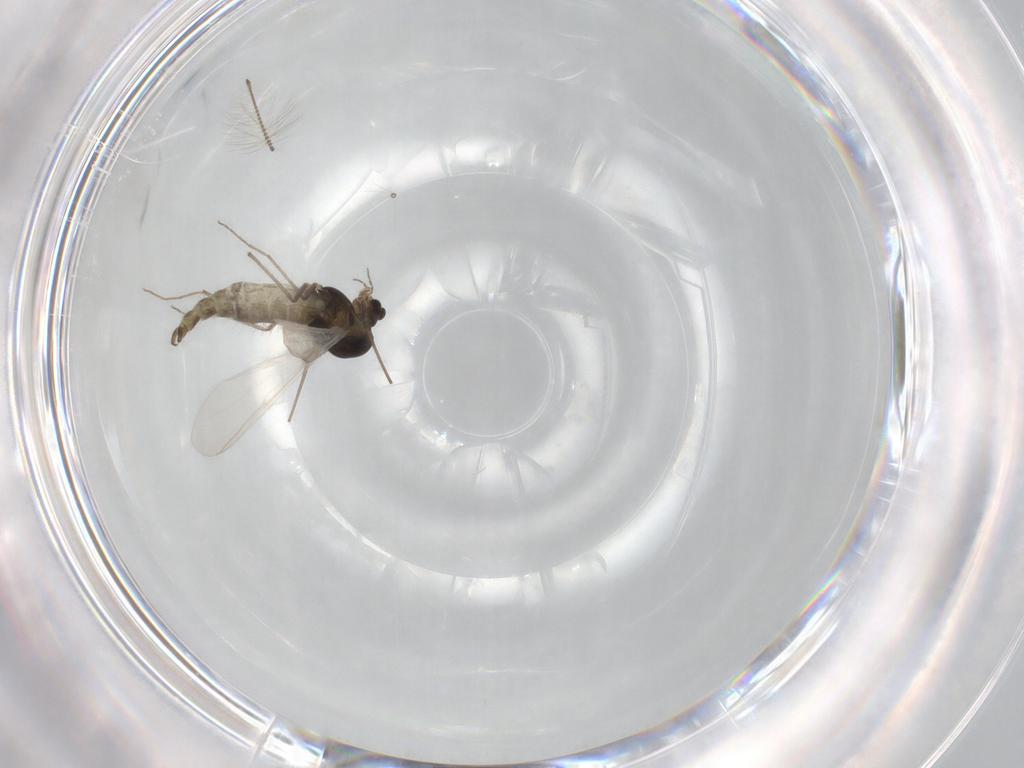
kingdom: Animalia
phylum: Arthropoda
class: Insecta
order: Diptera
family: Chironomidae
